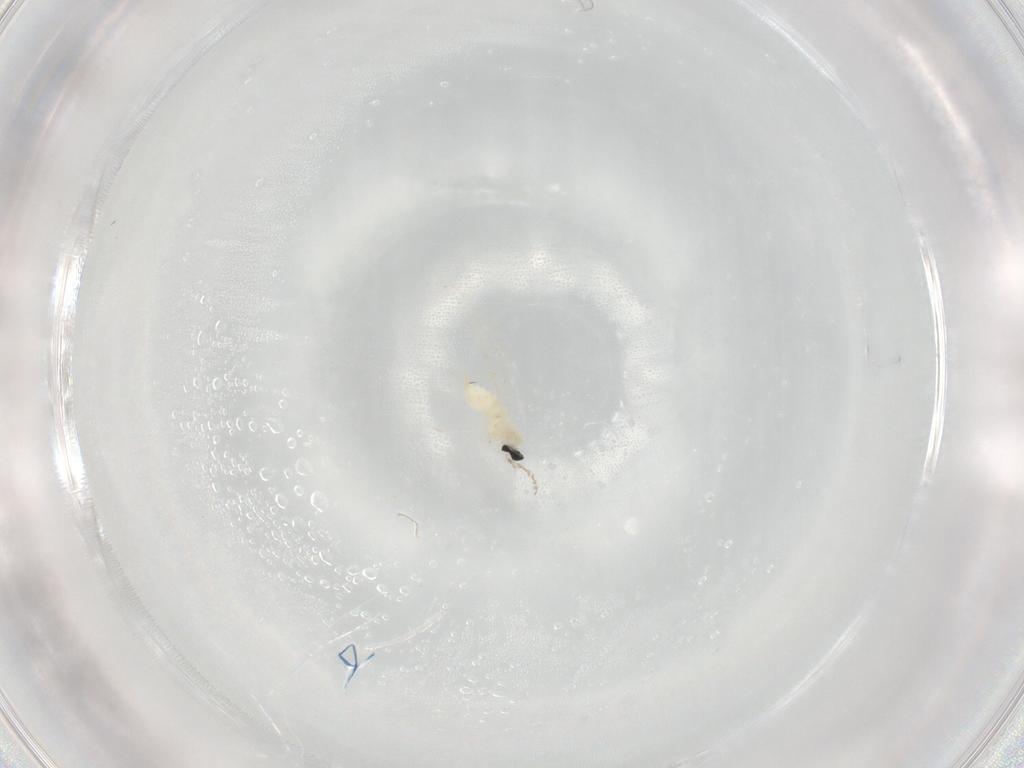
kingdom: Animalia
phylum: Arthropoda
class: Insecta
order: Diptera
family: Cecidomyiidae
